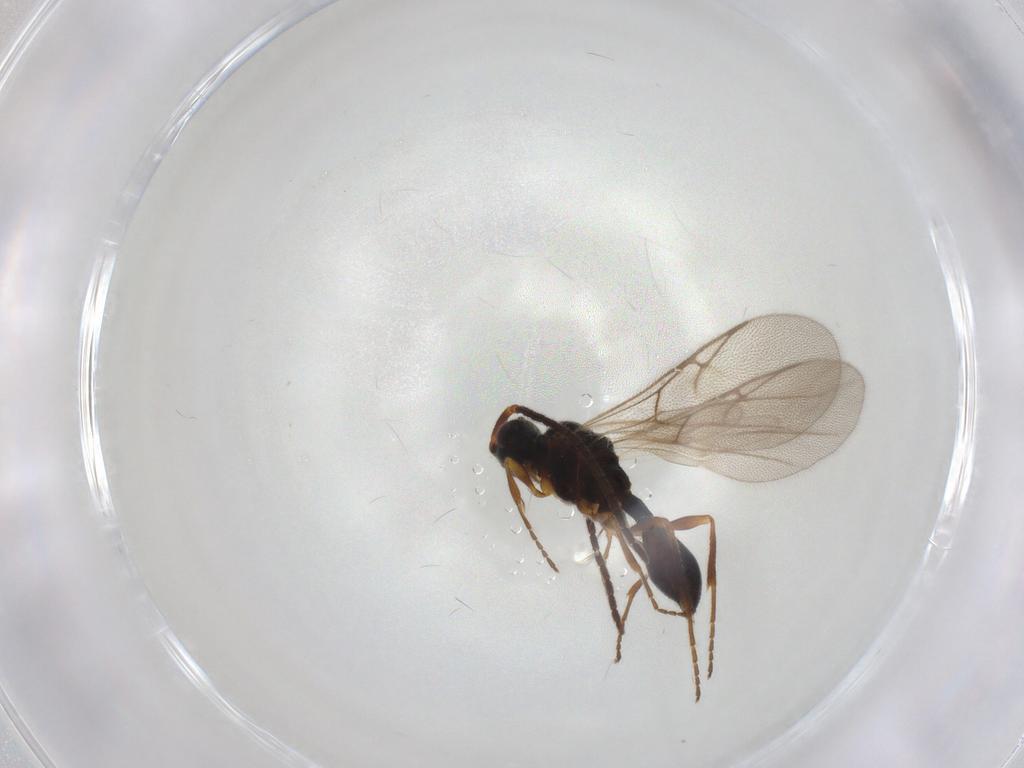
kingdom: Animalia
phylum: Arthropoda
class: Insecta
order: Hymenoptera
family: Diapriidae
